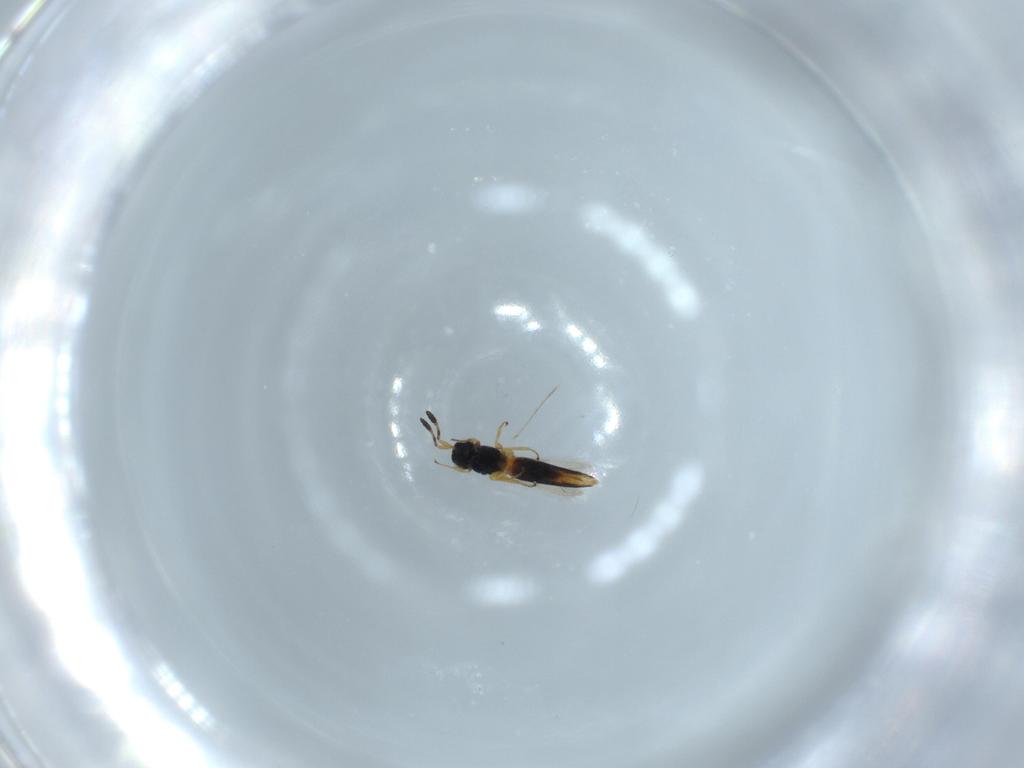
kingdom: Animalia
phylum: Arthropoda
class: Insecta
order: Hymenoptera
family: Scelionidae
